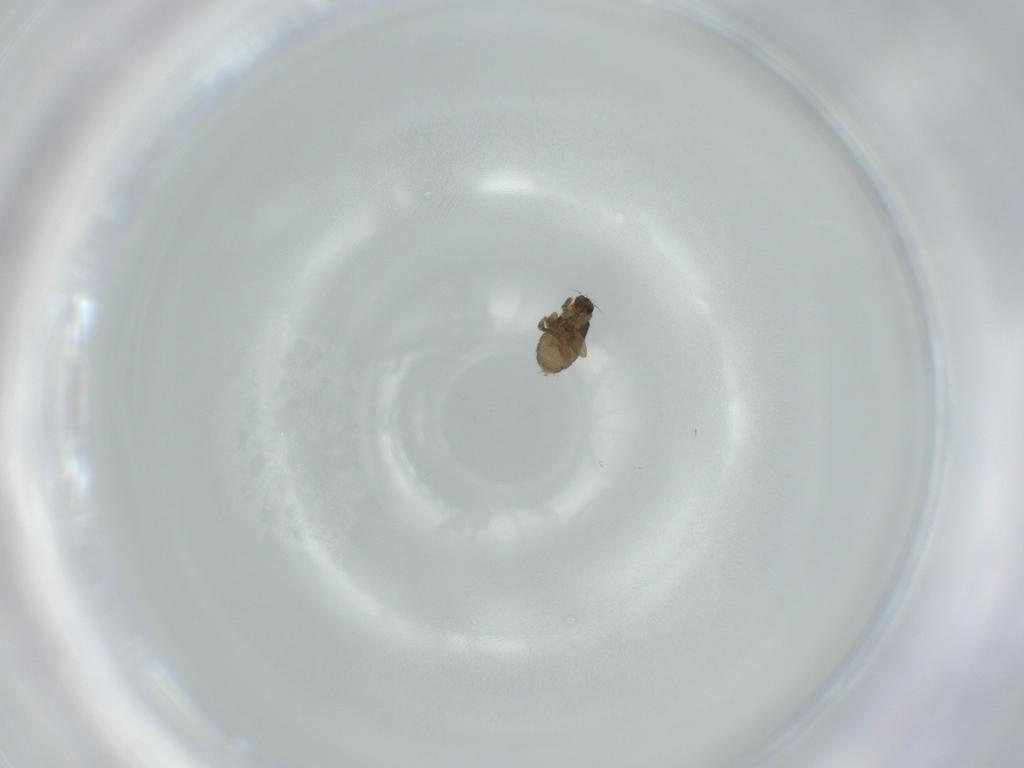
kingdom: Animalia
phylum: Arthropoda
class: Insecta
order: Diptera
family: Phoridae
